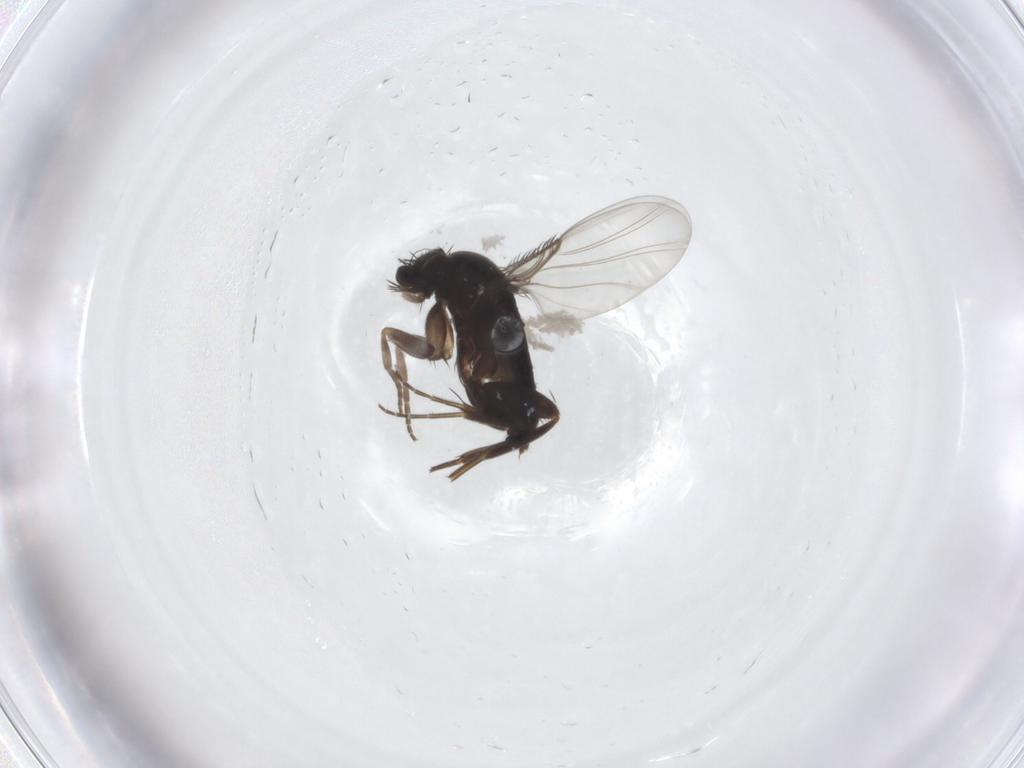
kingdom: Animalia
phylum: Arthropoda
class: Insecta
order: Diptera
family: Phoridae
